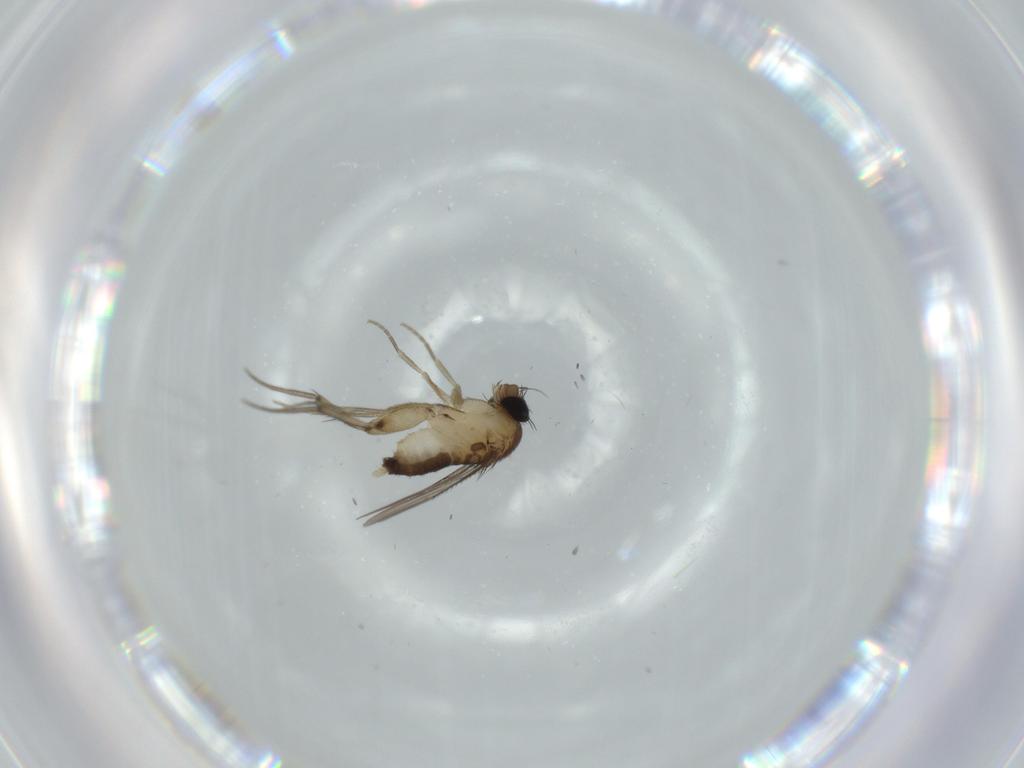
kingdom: Animalia
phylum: Arthropoda
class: Insecta
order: Diptera
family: Phoridae
